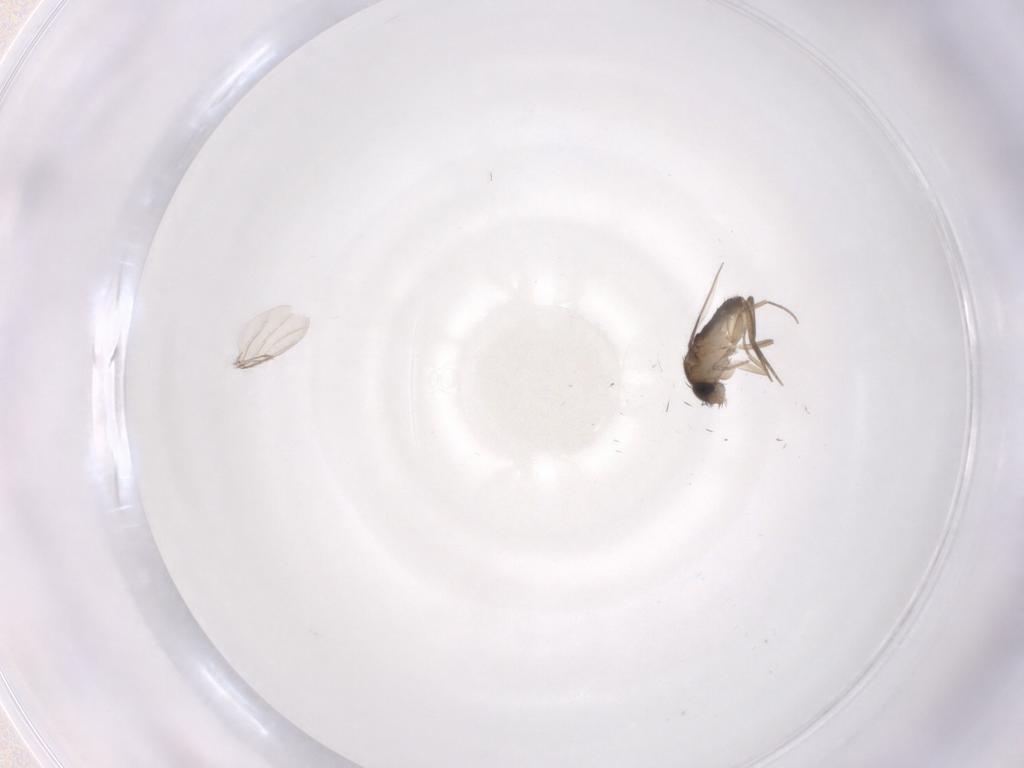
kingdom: Animalia
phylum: Arthropoda
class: Insecta
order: Diptera
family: Phoridae
